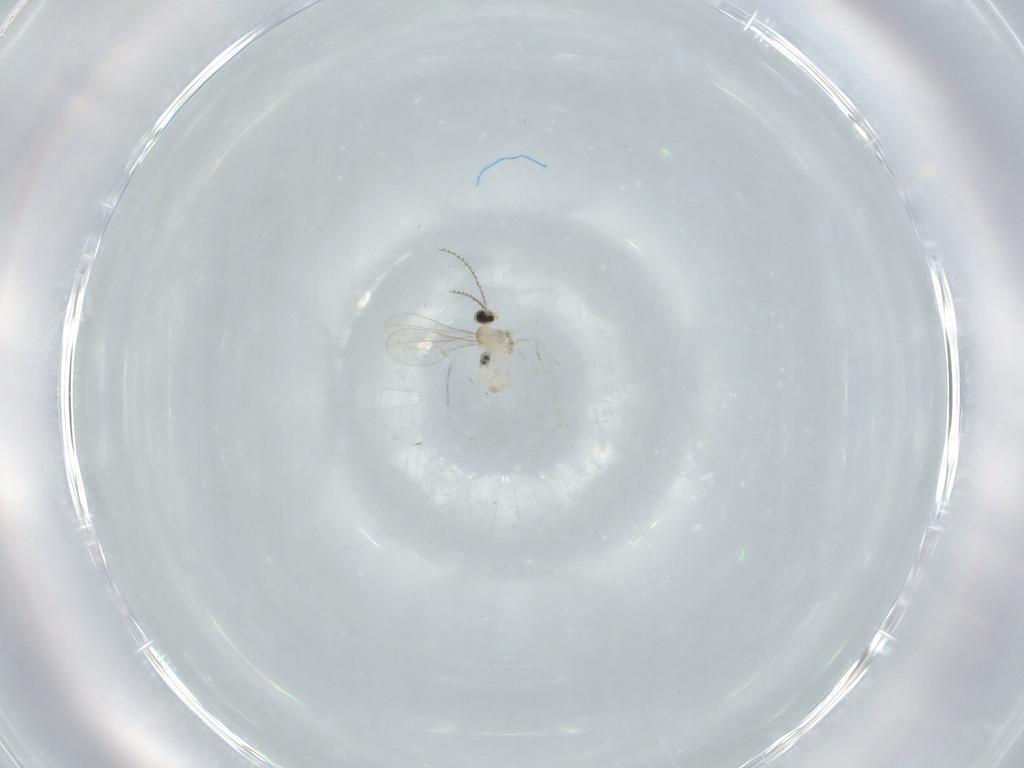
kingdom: Animalia
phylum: Arthropoda
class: Insecta
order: Diptera
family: Cecidomyiidae
